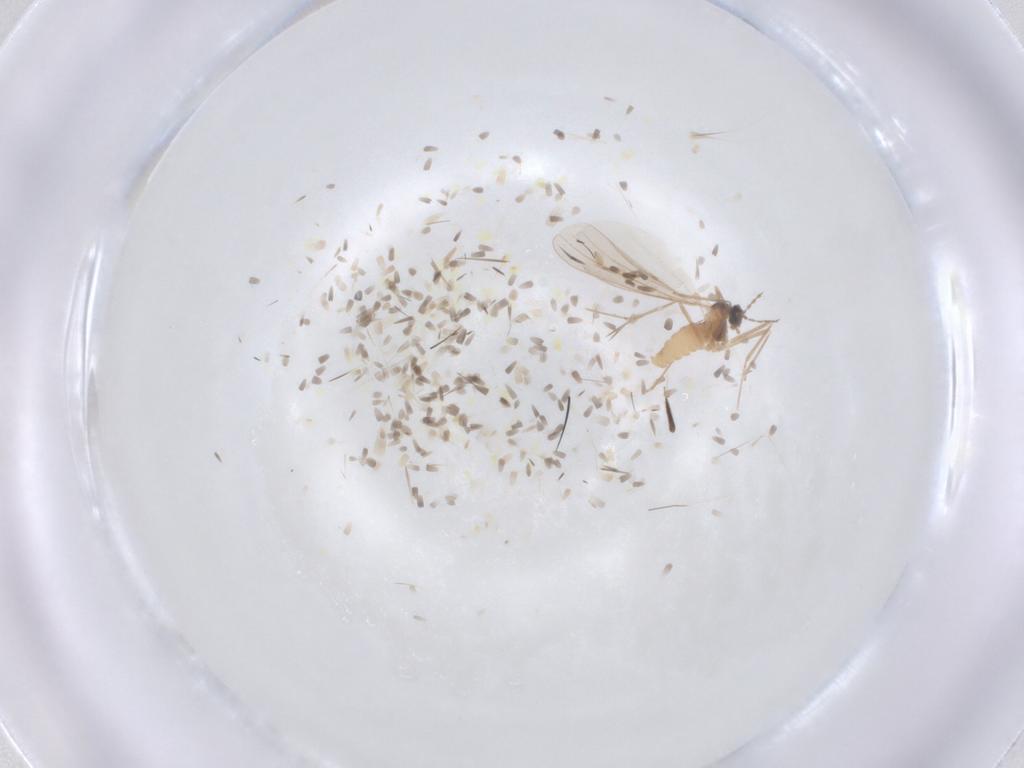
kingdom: Animalia
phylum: Arthropoda
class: Insecta
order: Diptera
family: Cecidomyiidae
